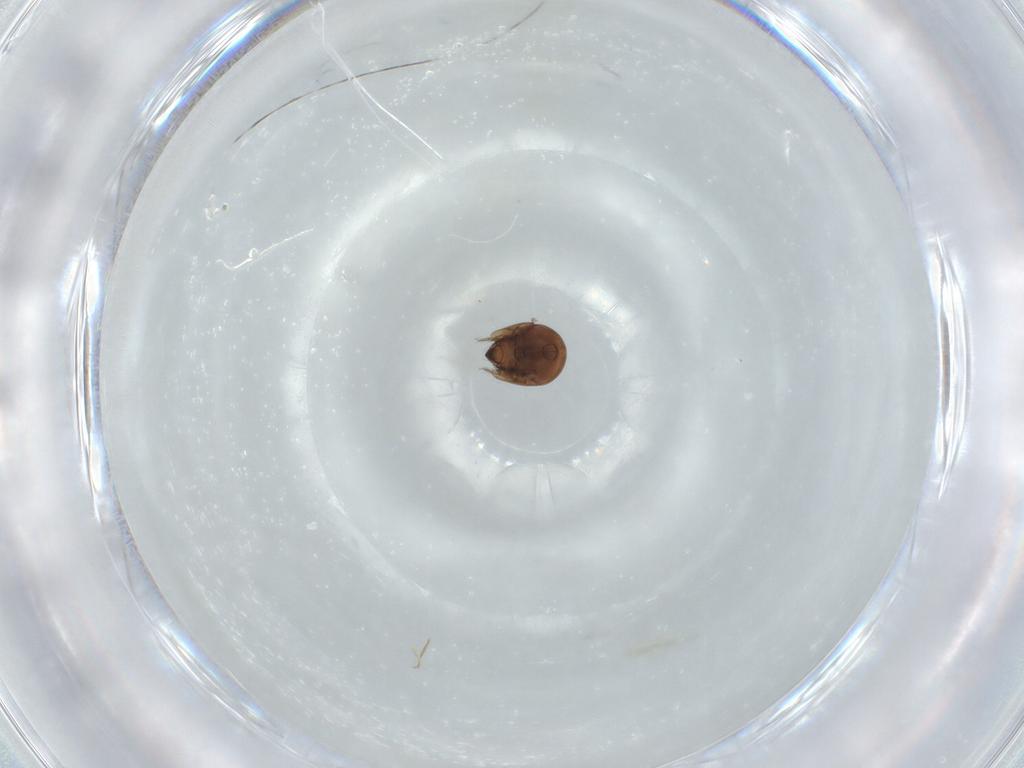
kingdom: Animalia
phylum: Arthropoda
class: Arachnida
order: Sarcoptiformes
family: Galumnidae
